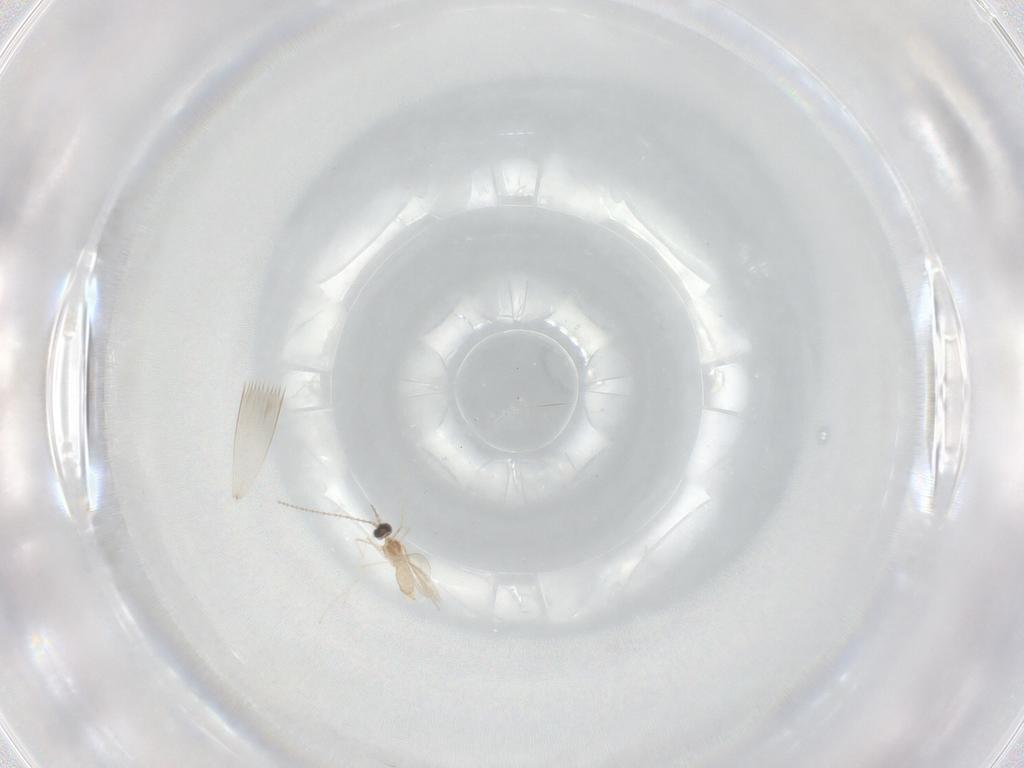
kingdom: Animalia
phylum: Arthropoda
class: Insecta
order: Diptera
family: Cecidomyiidae
